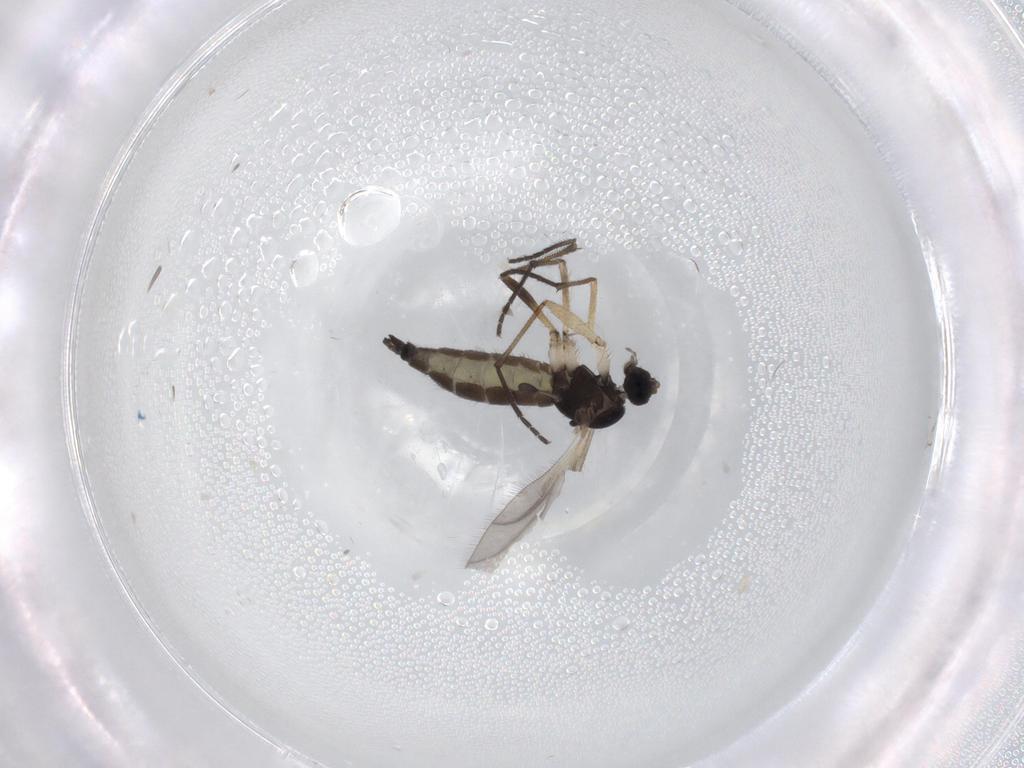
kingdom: Animalia
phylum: Arthropoda
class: Insecta
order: Diptera
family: Sciaridae
